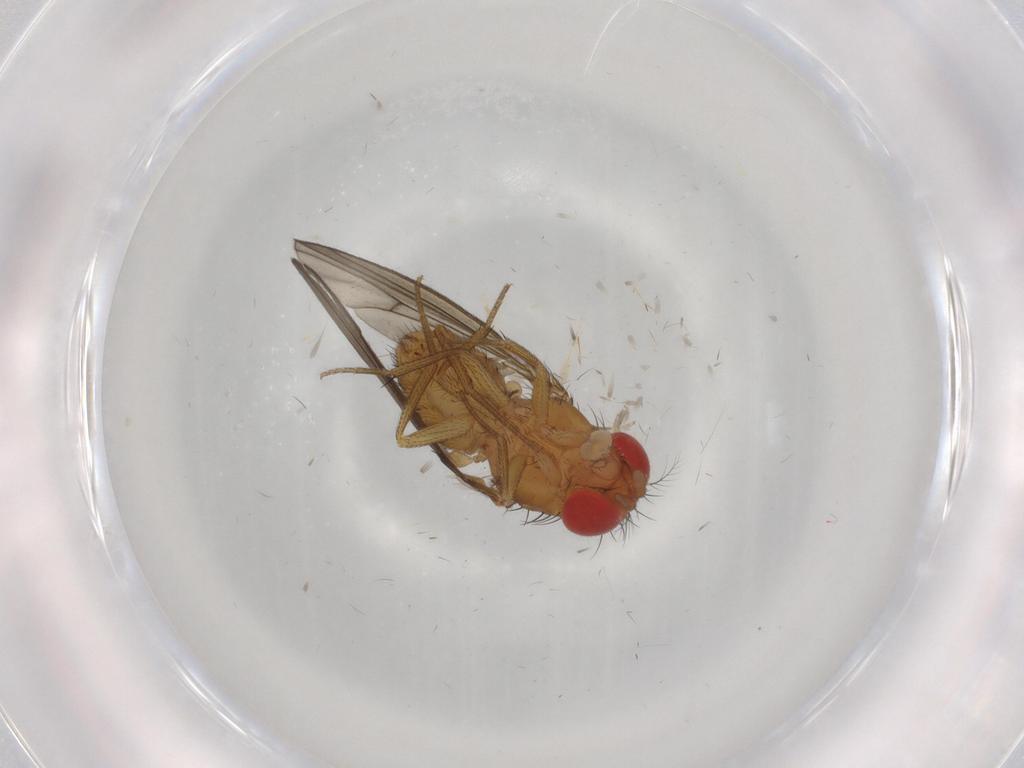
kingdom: Animalia
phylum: Arthropoda
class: Insecta
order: Diptera
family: Drosophilidae
